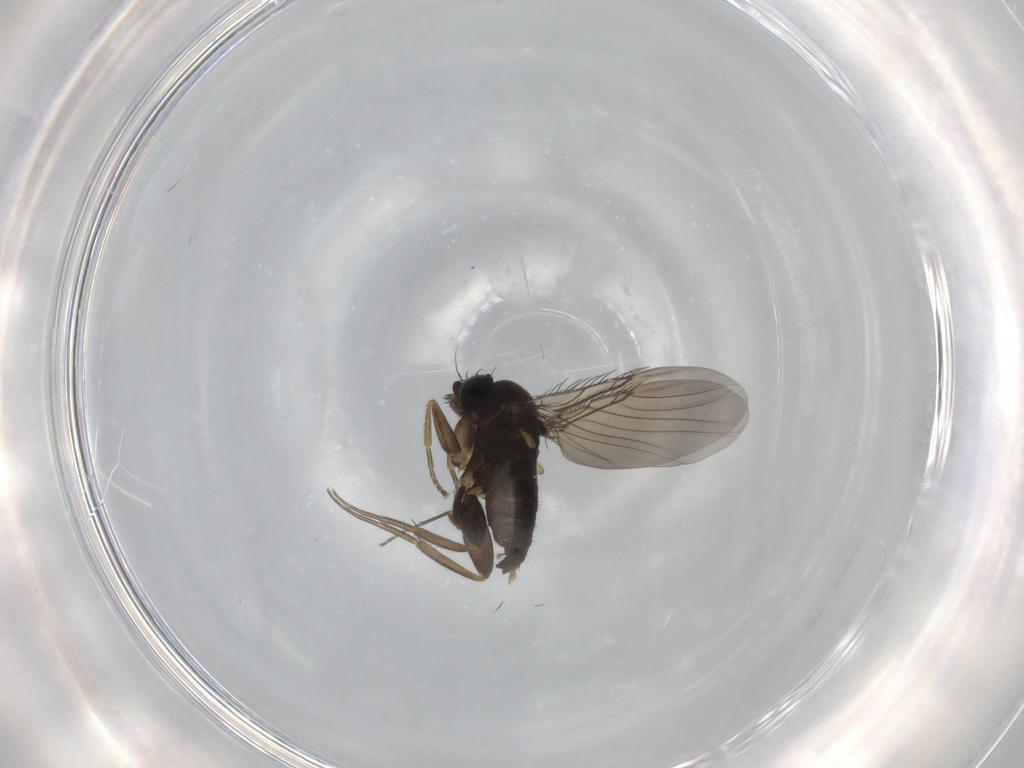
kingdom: Animalia
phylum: Arthropoda
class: Insecta
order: Diptera
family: Phoridae
